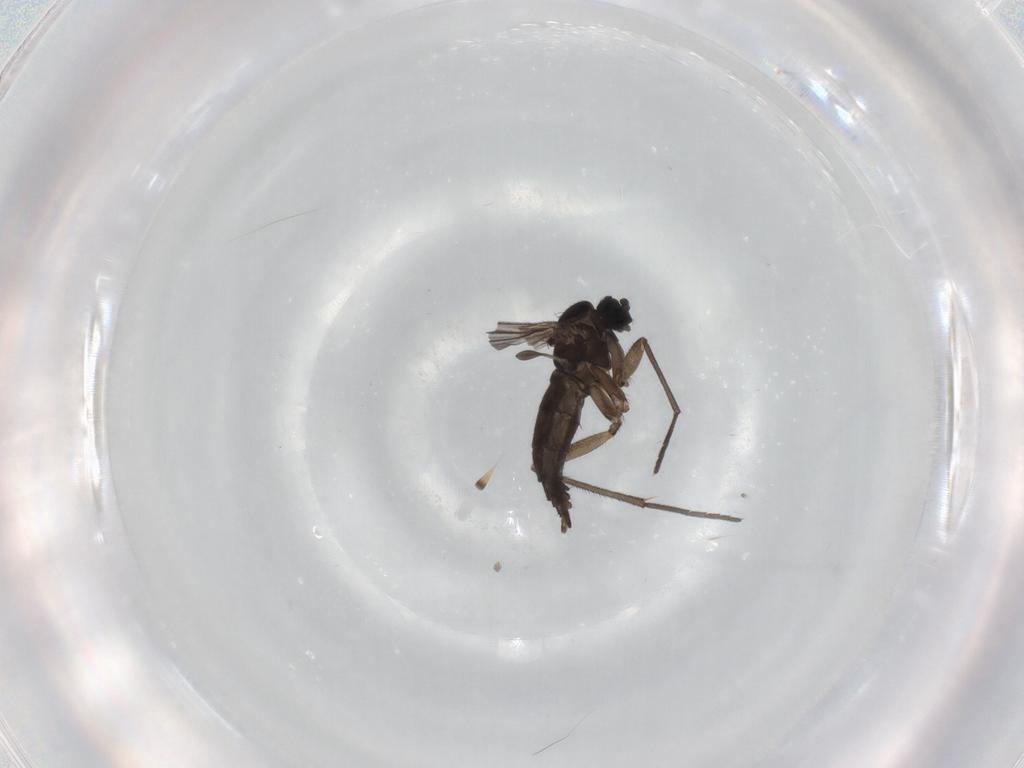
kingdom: Animalia
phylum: Arthropoda
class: Insecta
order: Diptera
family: Sciaridae
